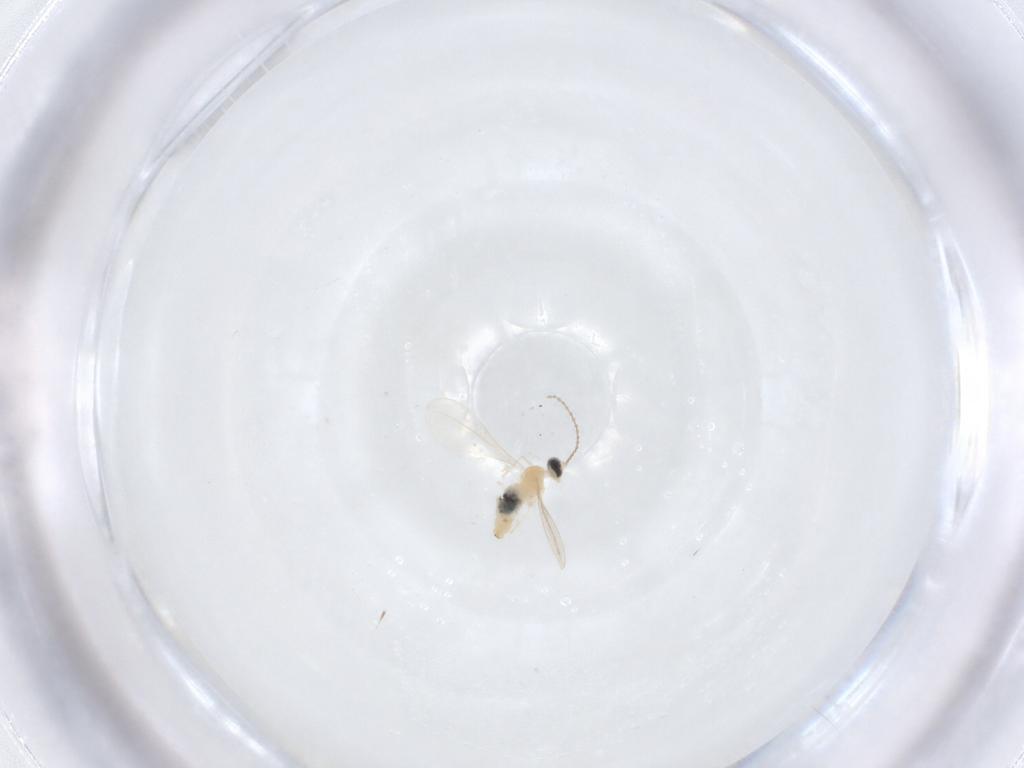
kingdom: Animalia
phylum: Arthropoda
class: Insecta
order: Diptera
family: Cecidomyiidae
